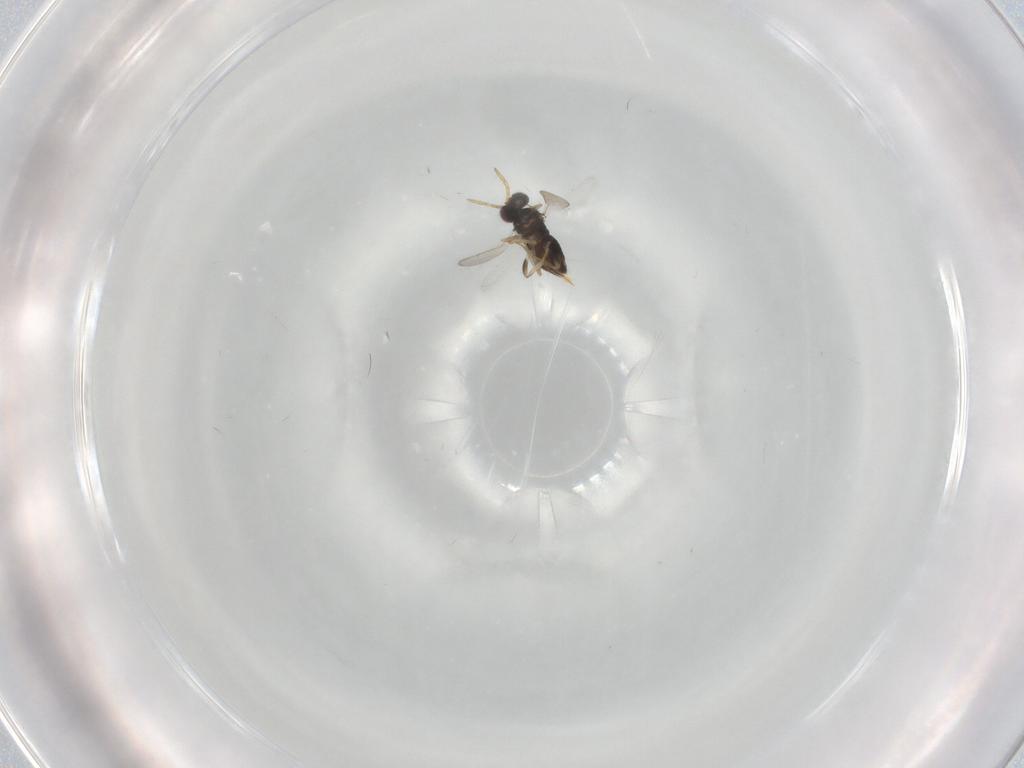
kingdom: Animalia
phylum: Arthropoda
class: Insecta
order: Hymenoptera
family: Aphelinidae
